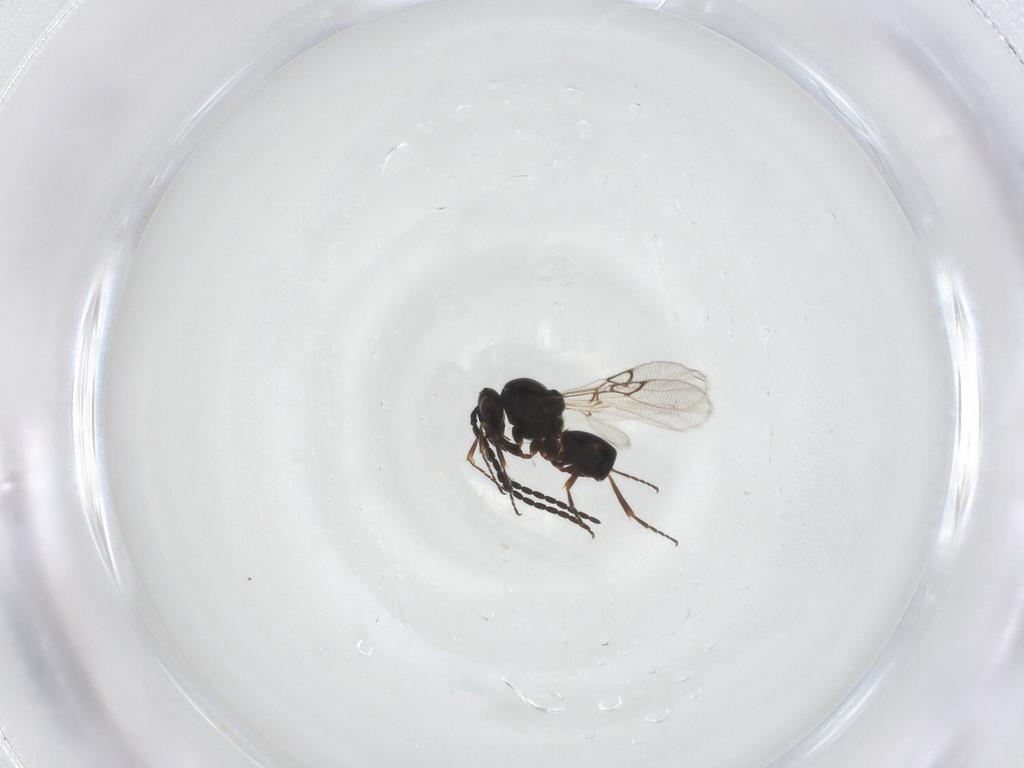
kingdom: Animalia
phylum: Arthropoda
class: Insecta
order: Hymenoptera
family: Figitidae
